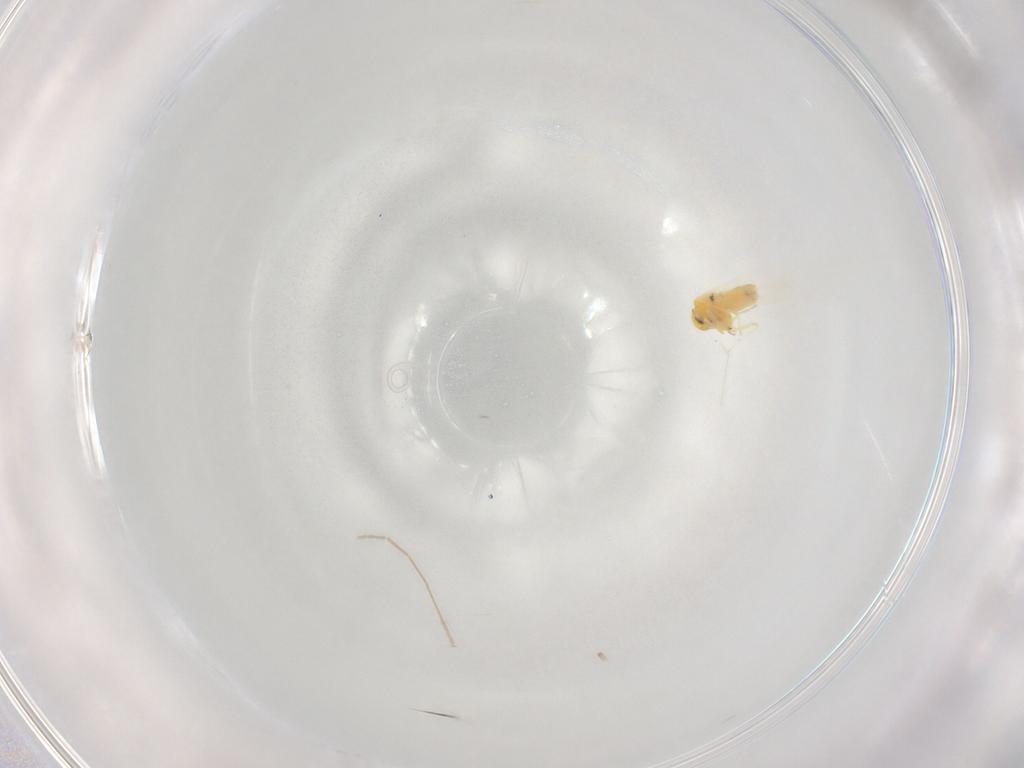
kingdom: Animalia
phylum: Arthropoda
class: Insecta
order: Hemiptera
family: Aleyrodidae
